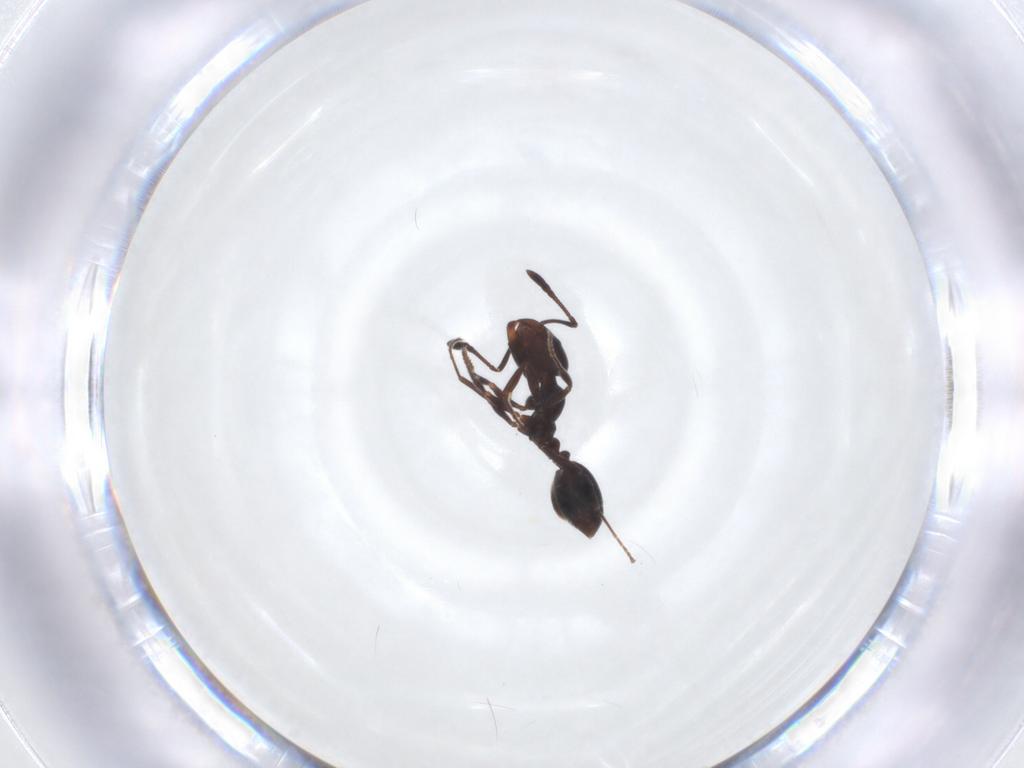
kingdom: Animalia
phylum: Arthropoda
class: Insecta
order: Hymenoptera
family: Formicidae
